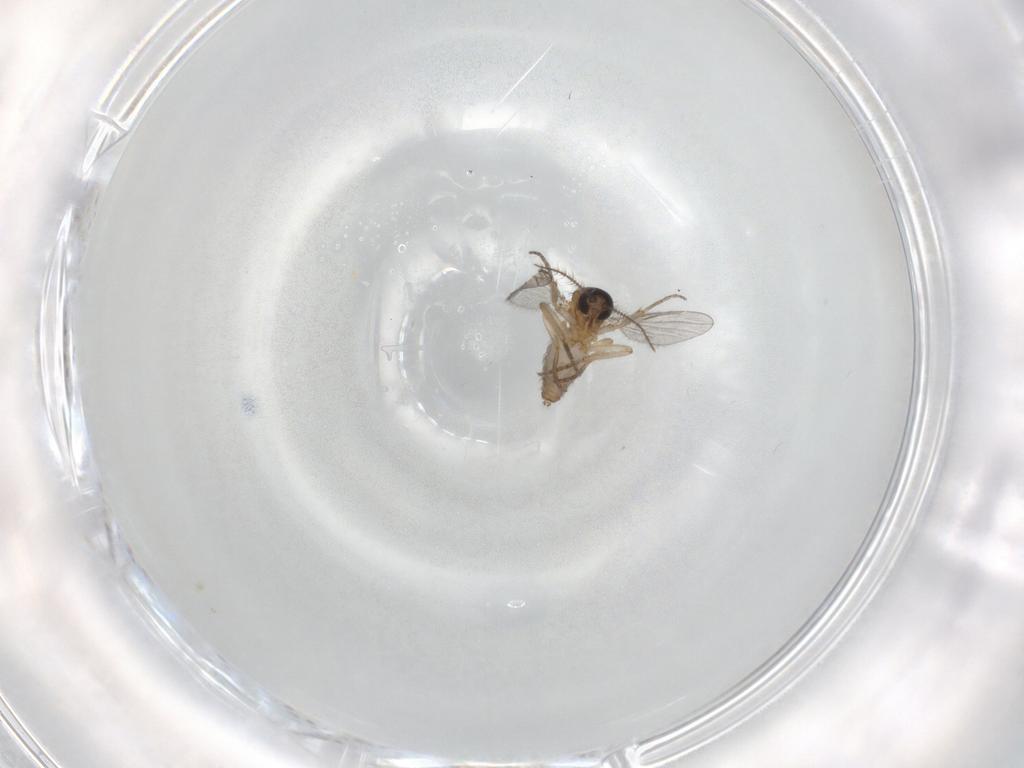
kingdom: Animalia
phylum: Arthropoda
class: Insecta
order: Diptera
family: Ceratopogonidae
